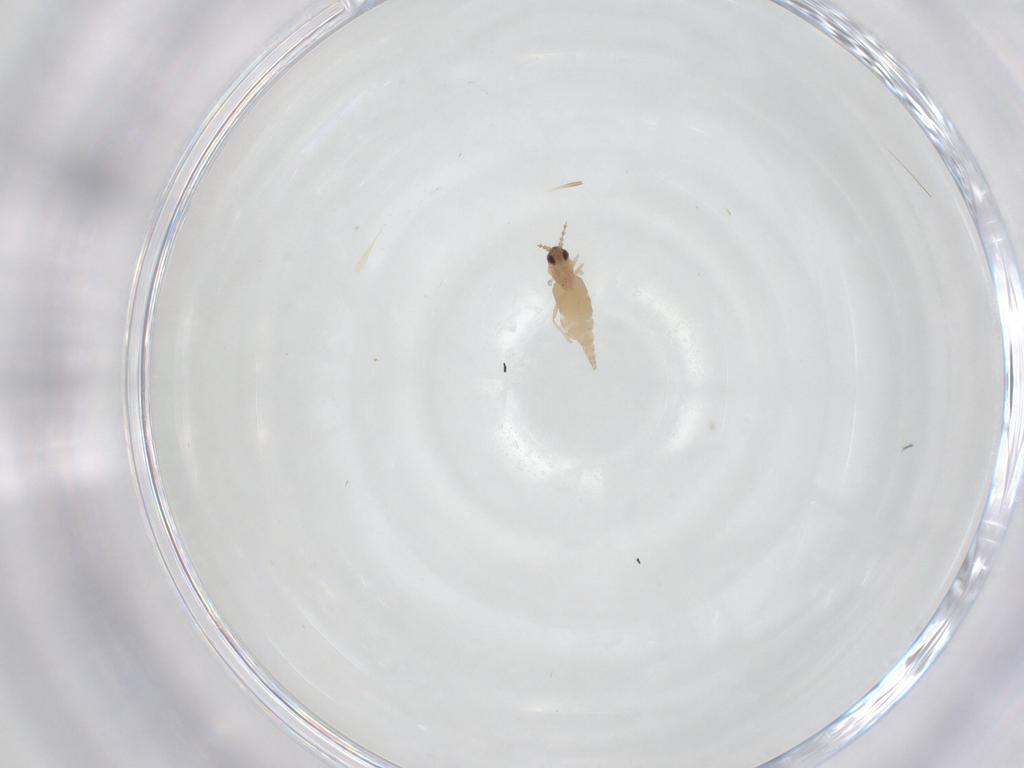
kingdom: Animalia
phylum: Arthropoda
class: Insecta
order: Diptera
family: Cecidomyiidae
